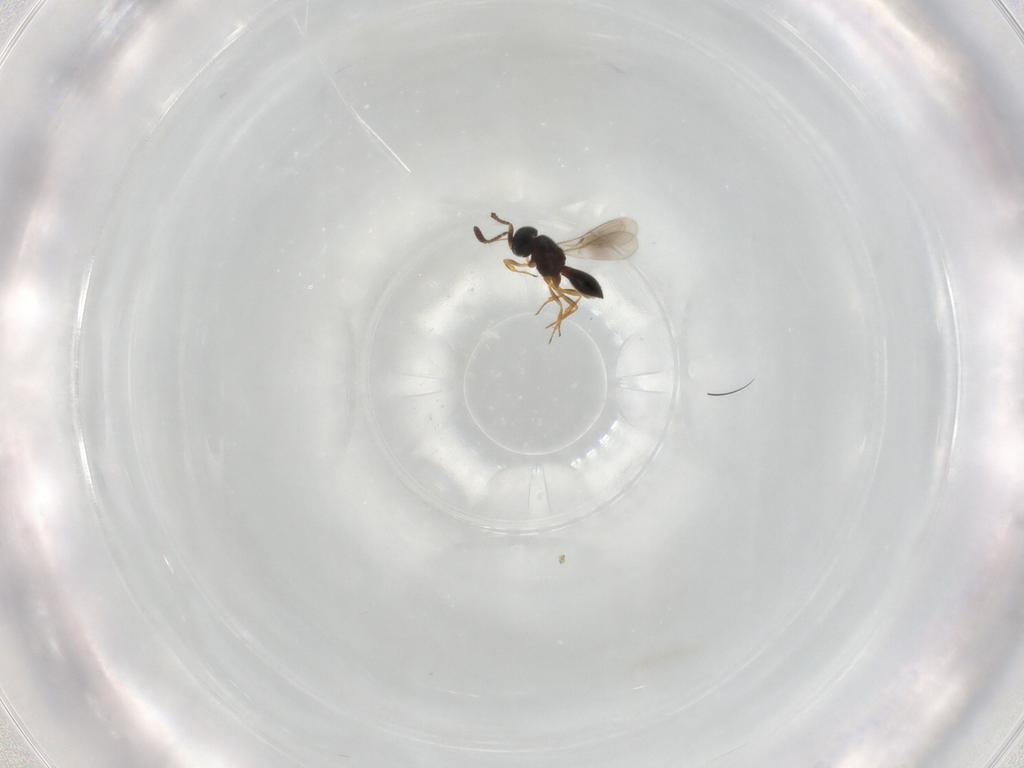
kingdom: Animalia
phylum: Arthropoda
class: Insecta
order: Hymenoptera
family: Scelionidae
